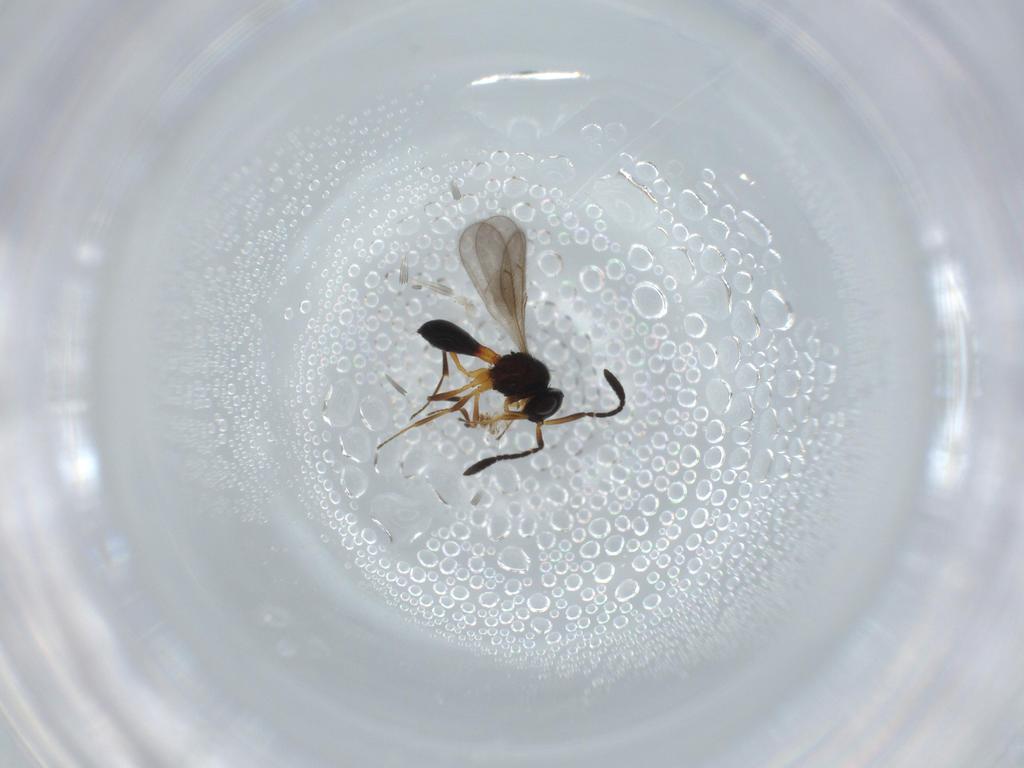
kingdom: Animalia
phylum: Arthropoda
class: Insecta
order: Hymenoptera
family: Scelionidae
